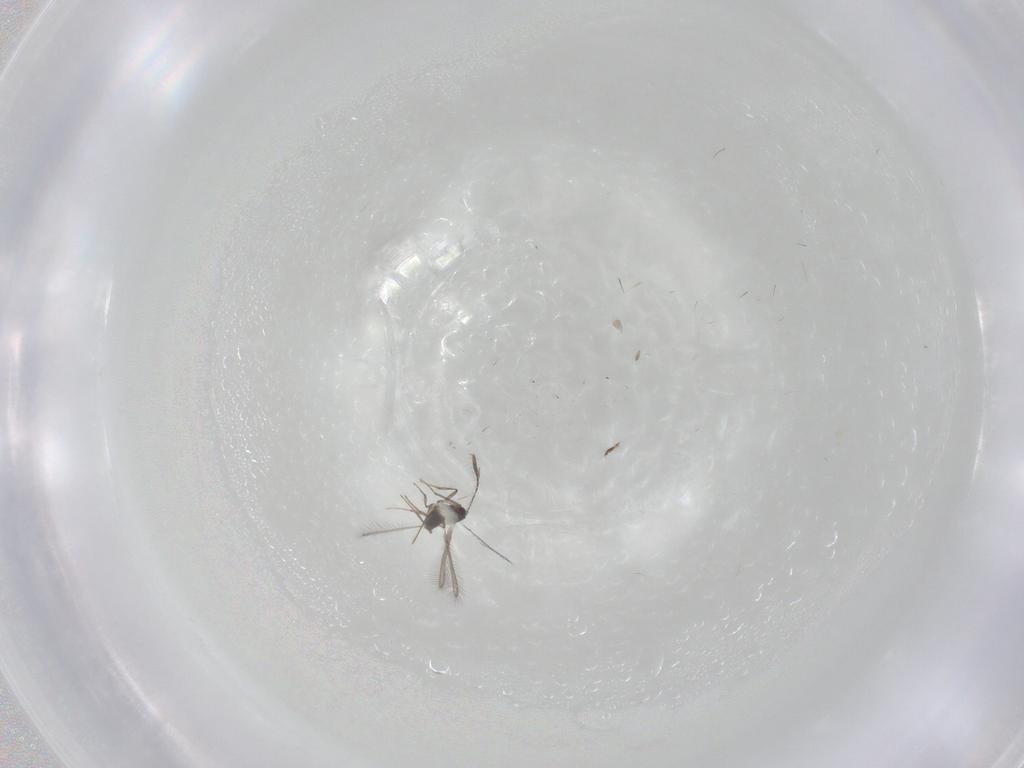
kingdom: Animalia
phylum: Arthropoda
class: Insecta
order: Hymenoptera
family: Mymaridae
